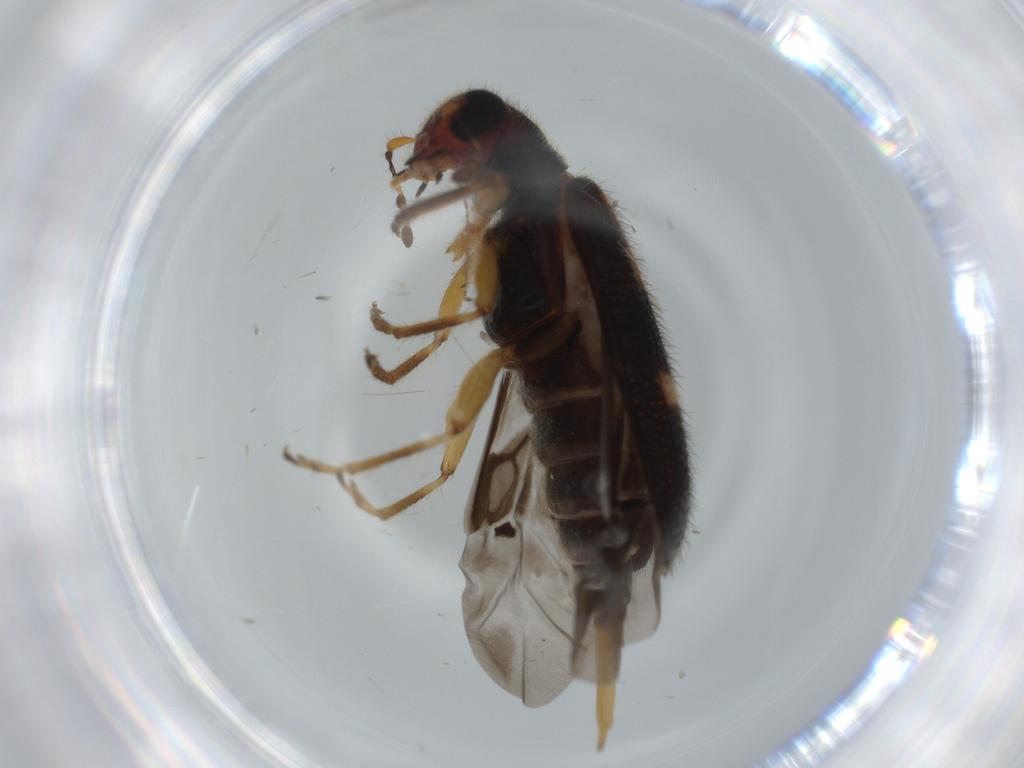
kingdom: Animalia
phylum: Arthropoda
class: Insecta
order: Coleoptera
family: Cleridae
